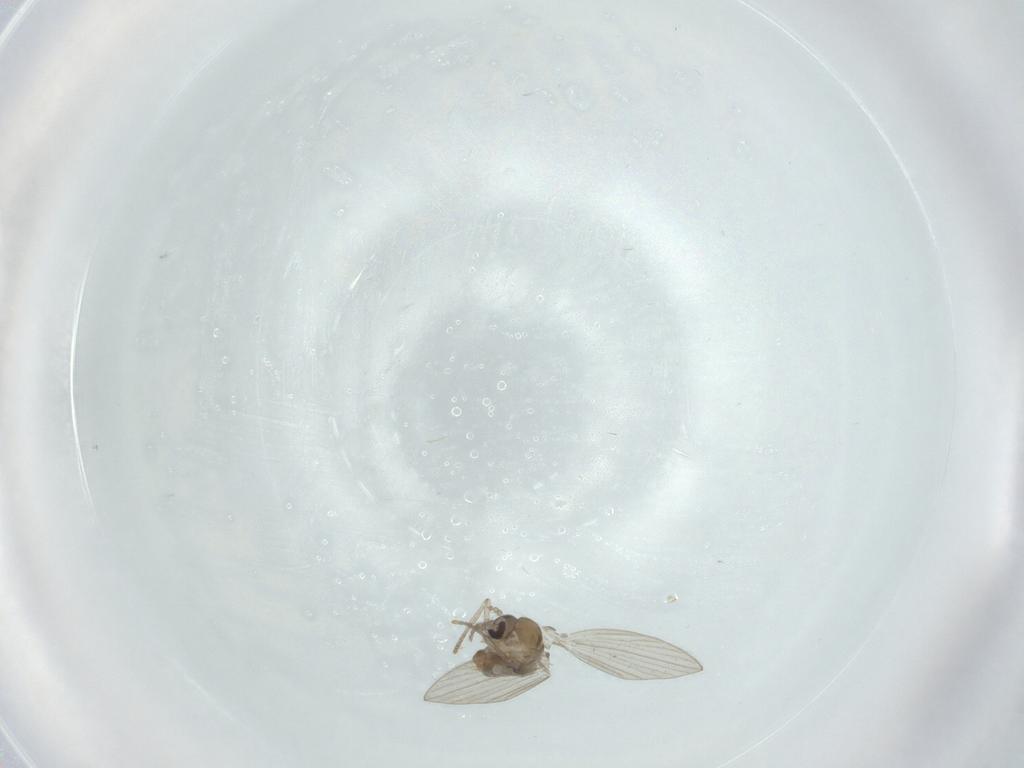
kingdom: Animalia
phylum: Arthropoda
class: Insecta
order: Diptera
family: Psychodidae
